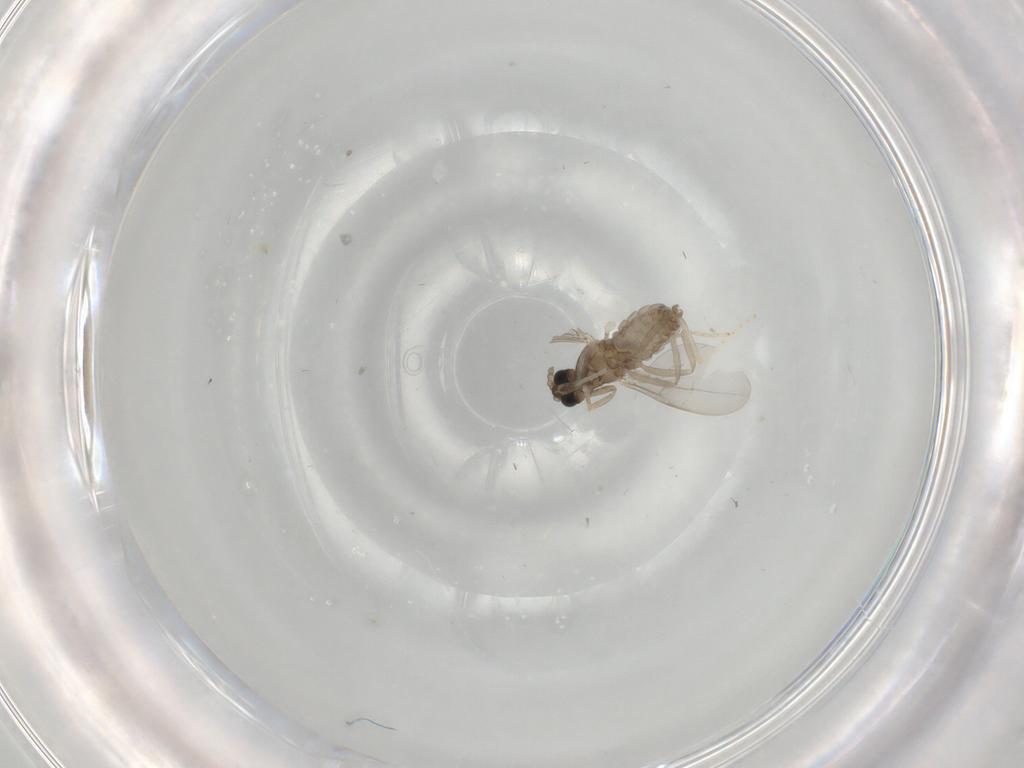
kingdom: Animalia
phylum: Arthropoda
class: Insecta
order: Diptera
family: Cecidomyiidae
